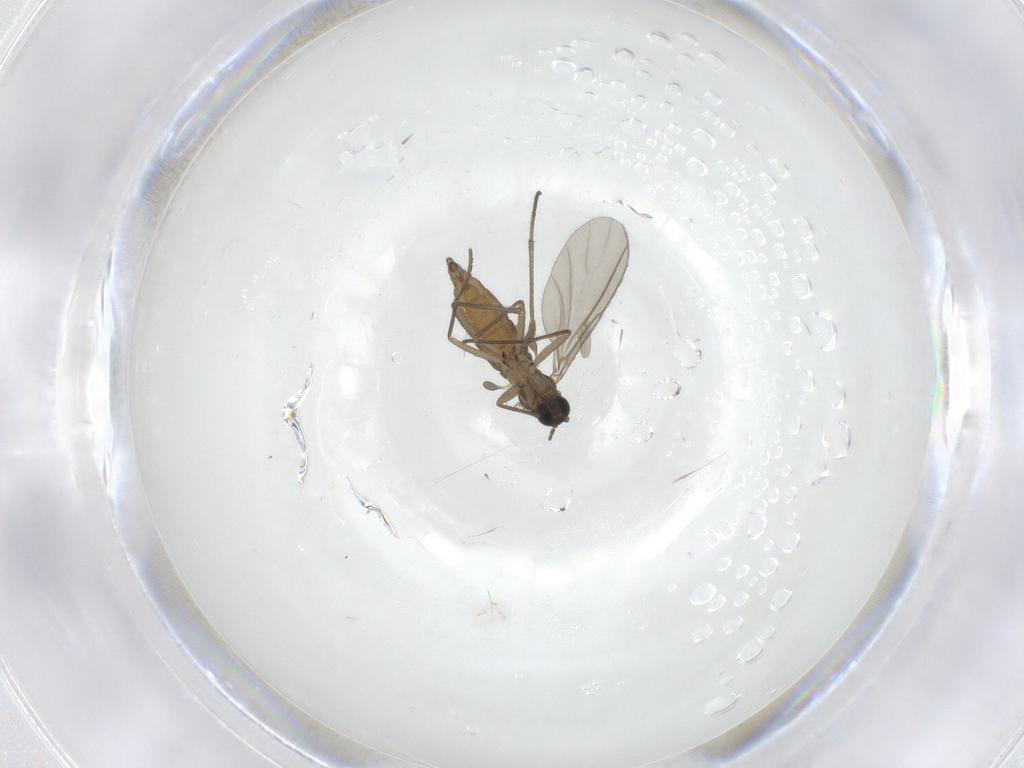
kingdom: Animalia
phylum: Arthropoda
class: Insecta
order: Diptera
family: Sciaridae
